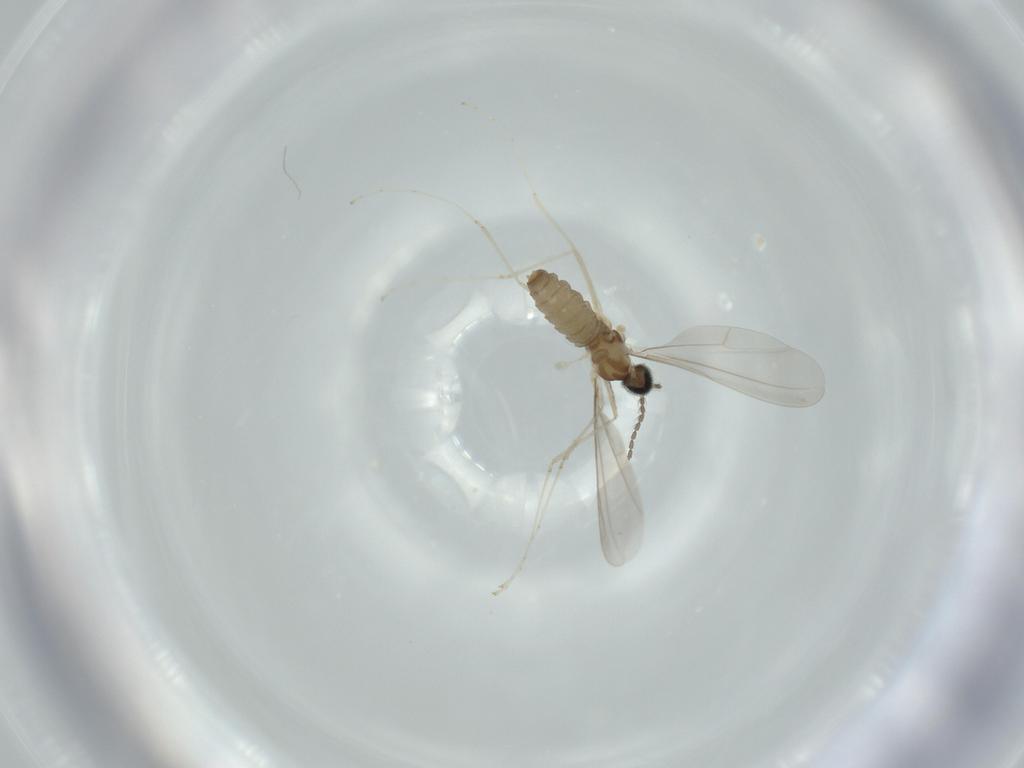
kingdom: Animalia
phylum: Arthropoda
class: Insecta
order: Diptera
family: Cecidomyiidae
